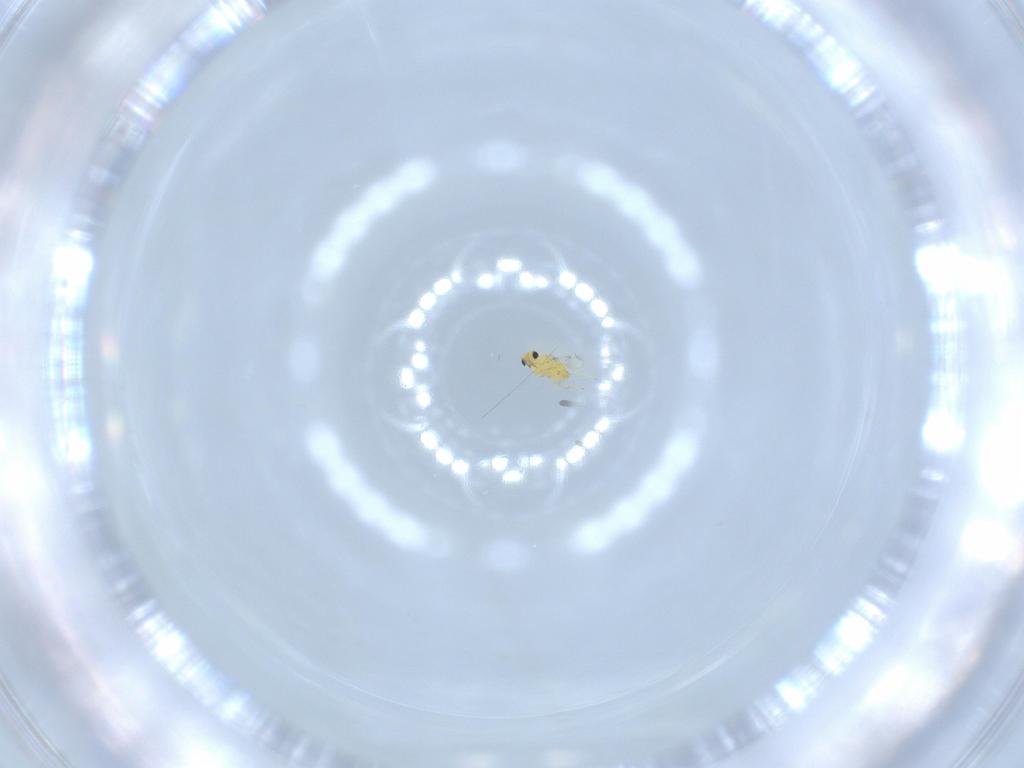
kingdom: Animalia
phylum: Arthropoda
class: Insecta
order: Hymenoptera
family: Trichogrammatidae
